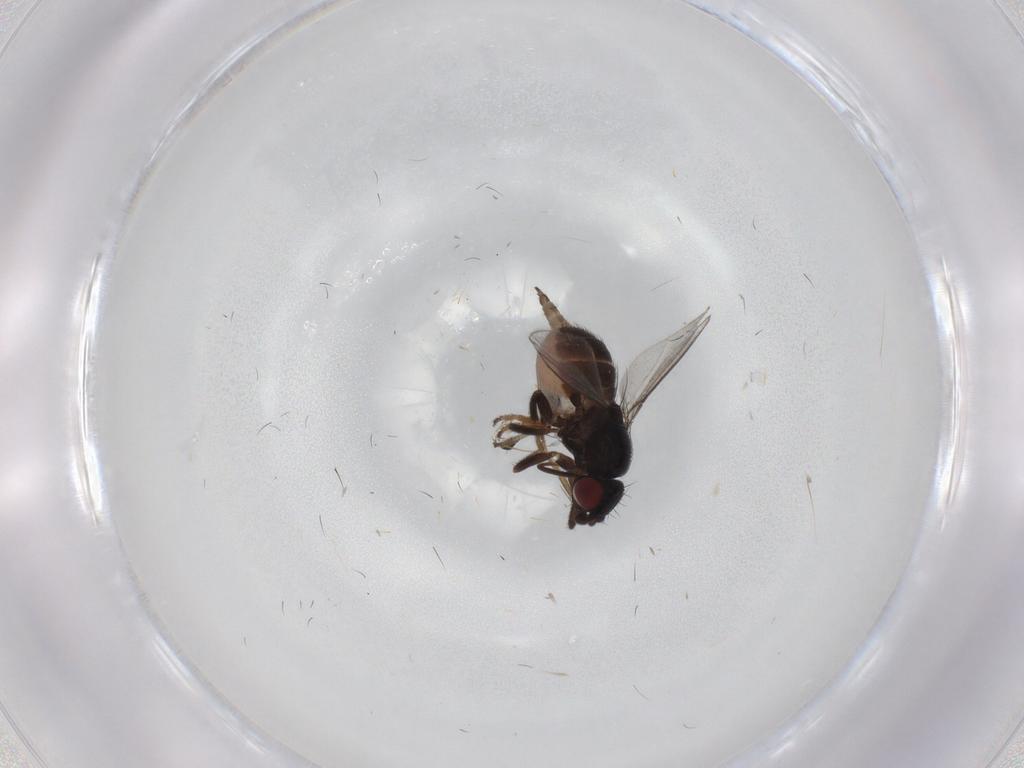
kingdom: Animalia
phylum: Arthropoda
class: Insecta
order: Diptera
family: Milichiidae
